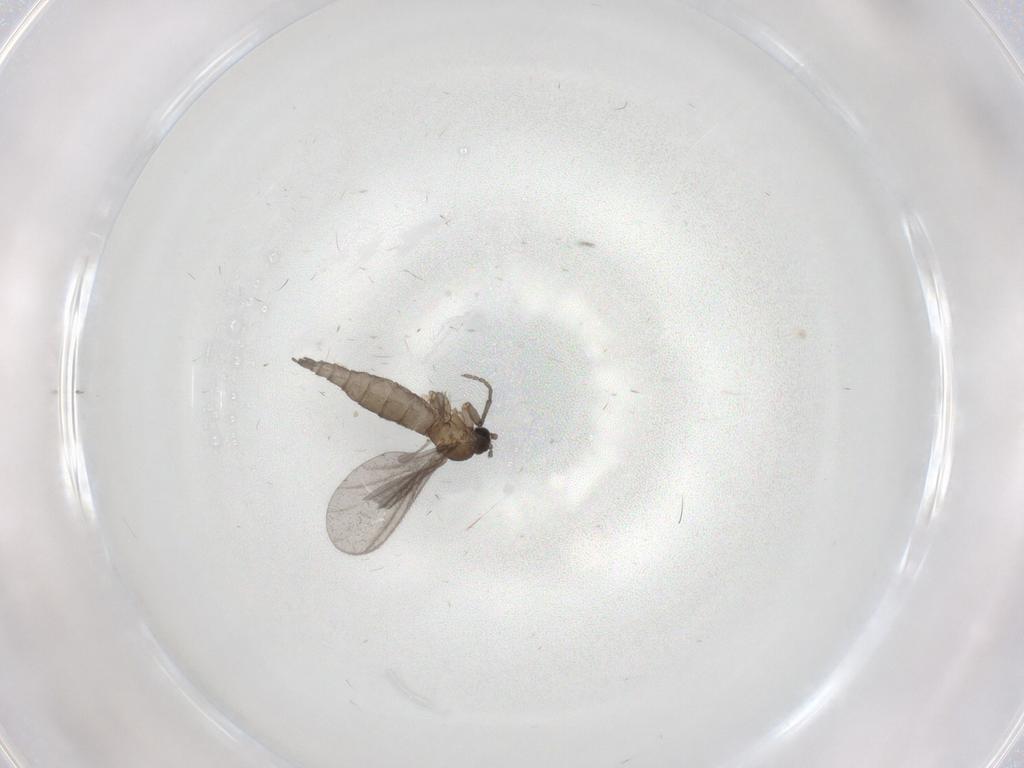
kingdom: Animalia
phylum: Arthropoda
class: Insecta
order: Diptera
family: Sciaridae
